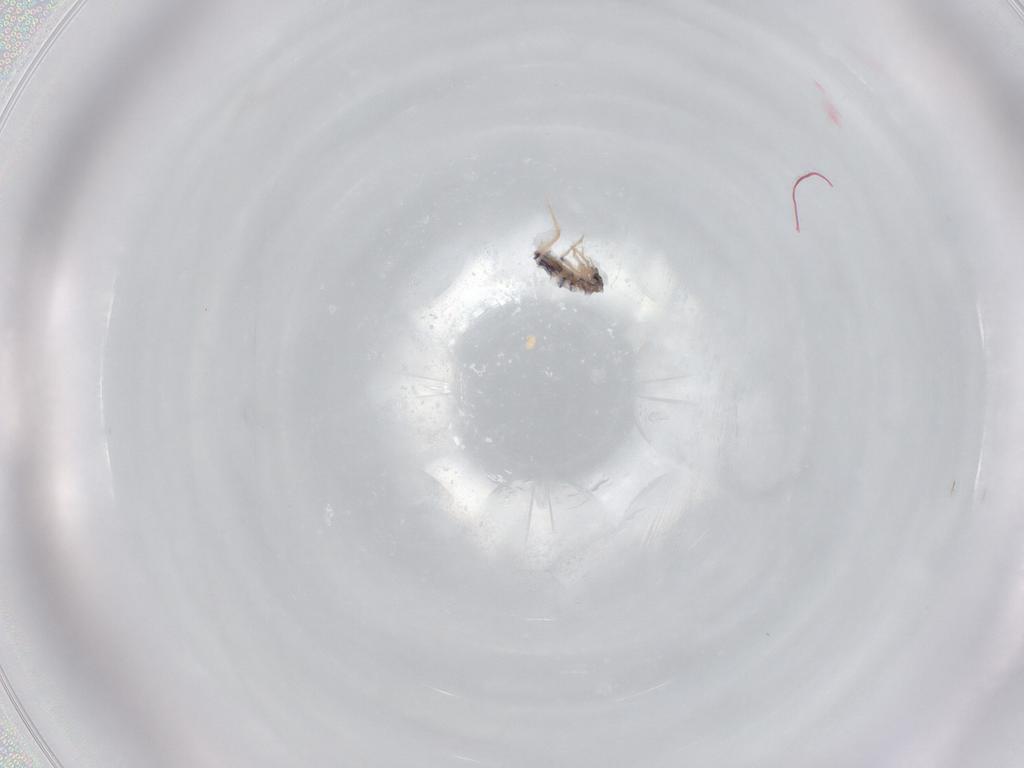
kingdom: Animalia
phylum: Arthropoda
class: Collembola
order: Entomobryomorpha
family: Entomobryidae
